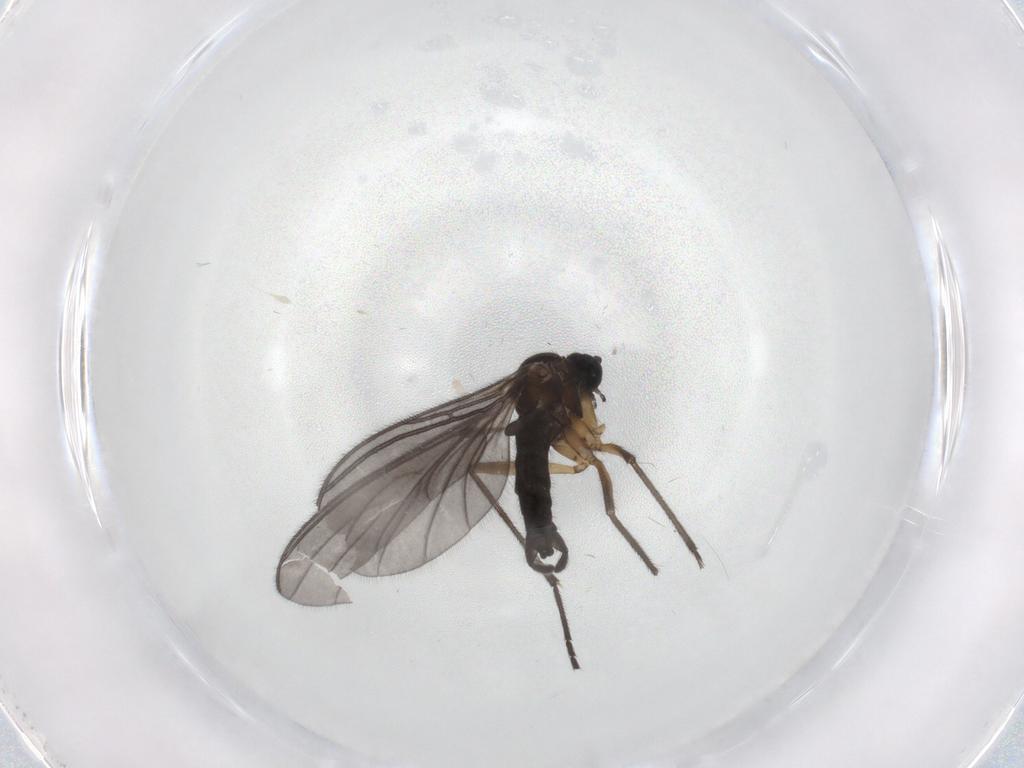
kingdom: Animalia
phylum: Arthropoda
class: Insecta
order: Diptera
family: Sciaridae
